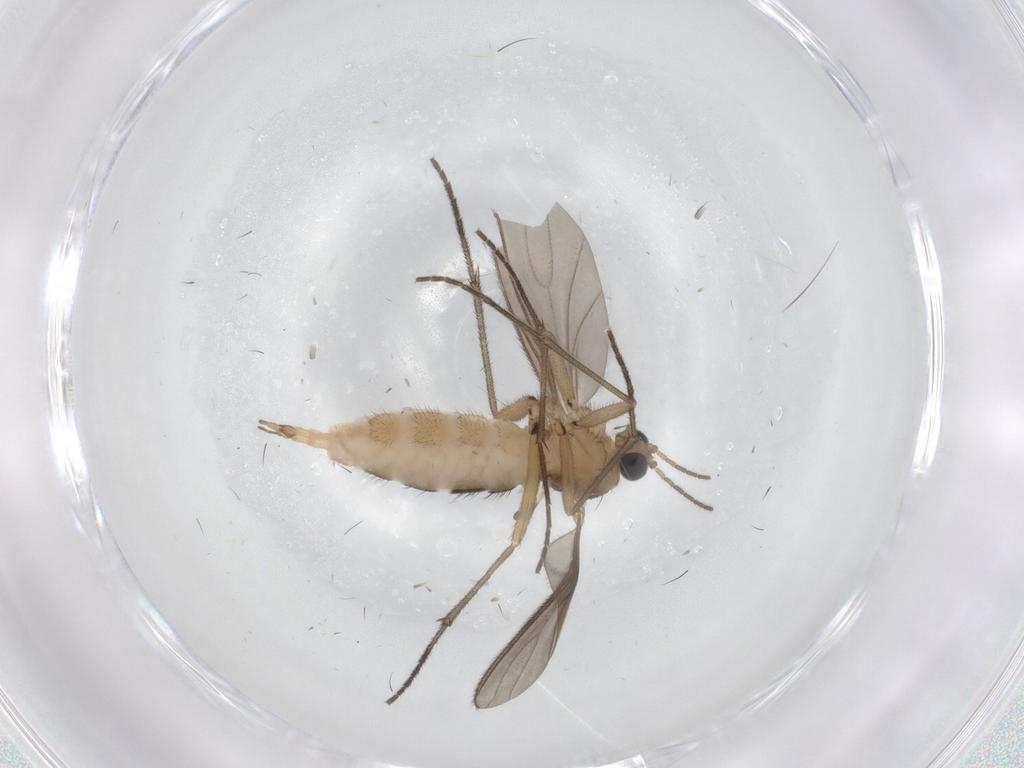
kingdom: Animalia
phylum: Arthropoda
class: Insecta
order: Diptera
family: Sciaridae
